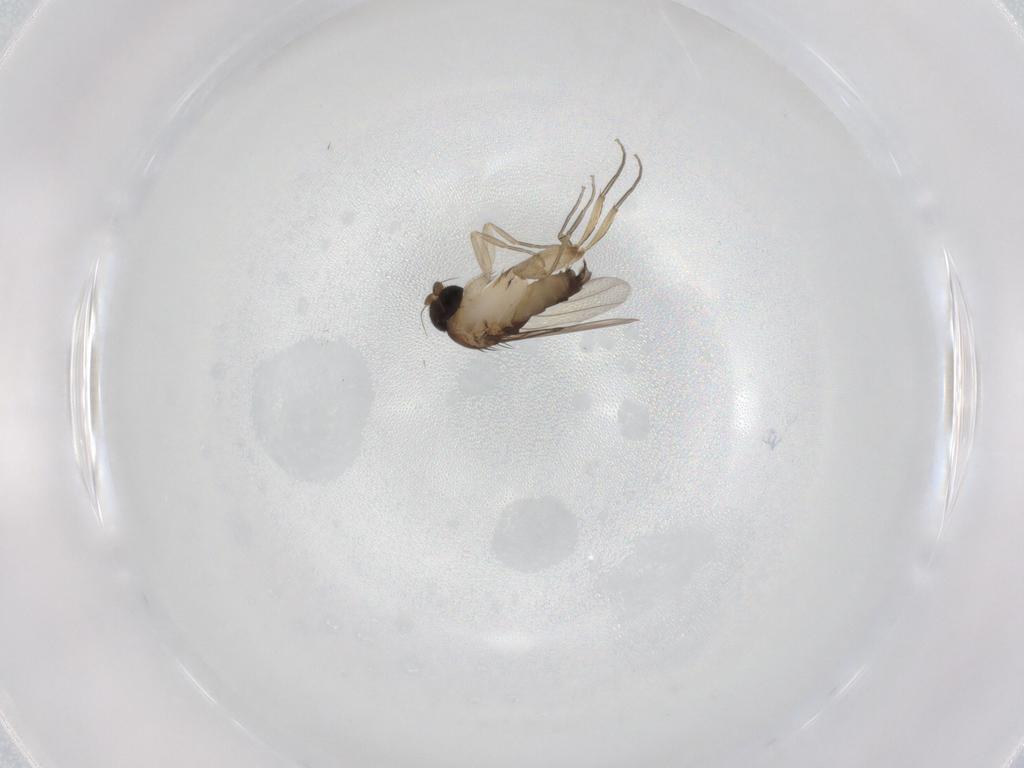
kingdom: Animalia
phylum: Arthropoda
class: Insecta
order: Diptera
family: Phoridae
